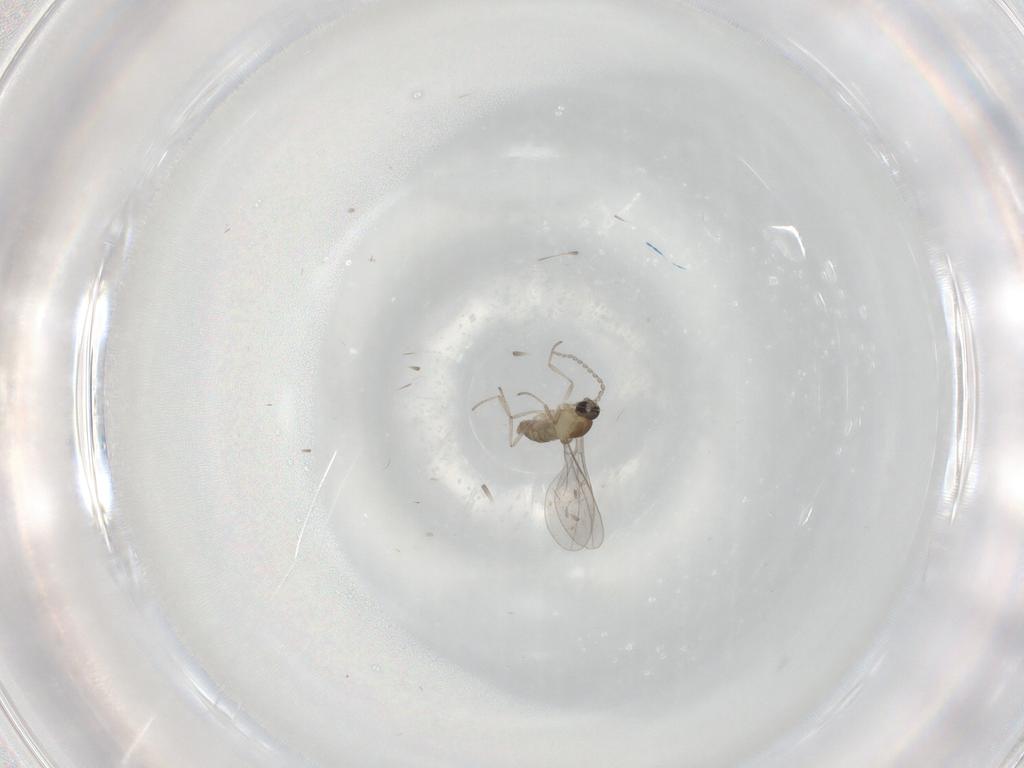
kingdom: Animalia
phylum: Arthropoda
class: Insecta
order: Diptera
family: Cecidomyiidae
